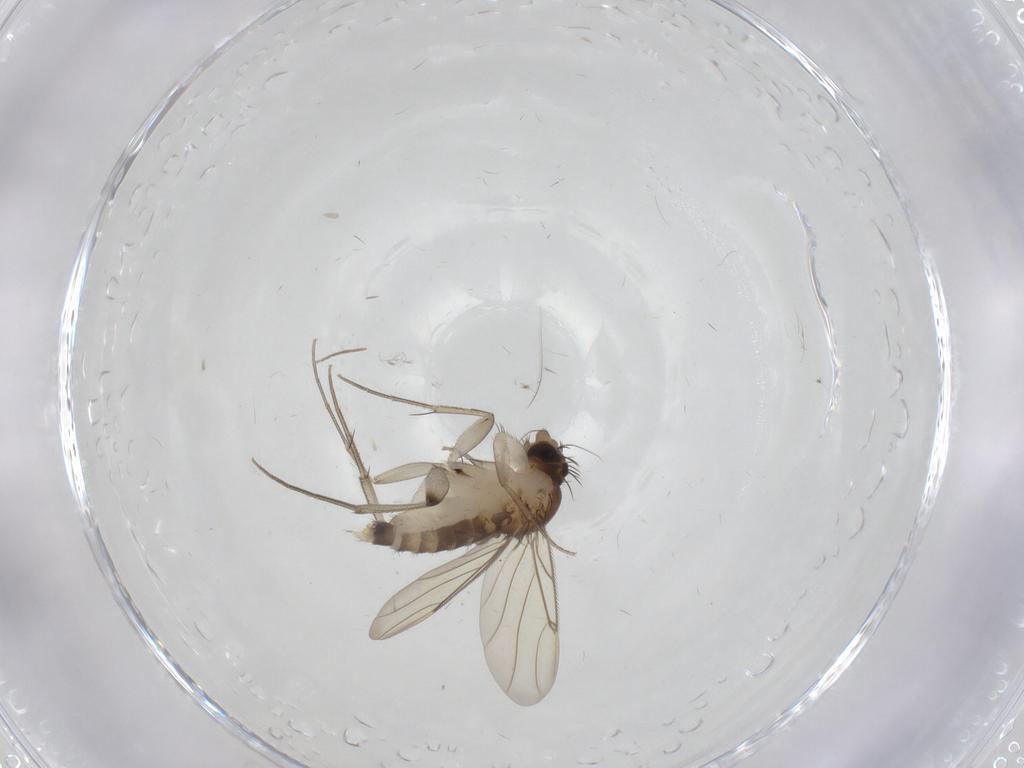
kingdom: Animalia
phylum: Arthropoda
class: Insecta
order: Diptera
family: Phoridae
